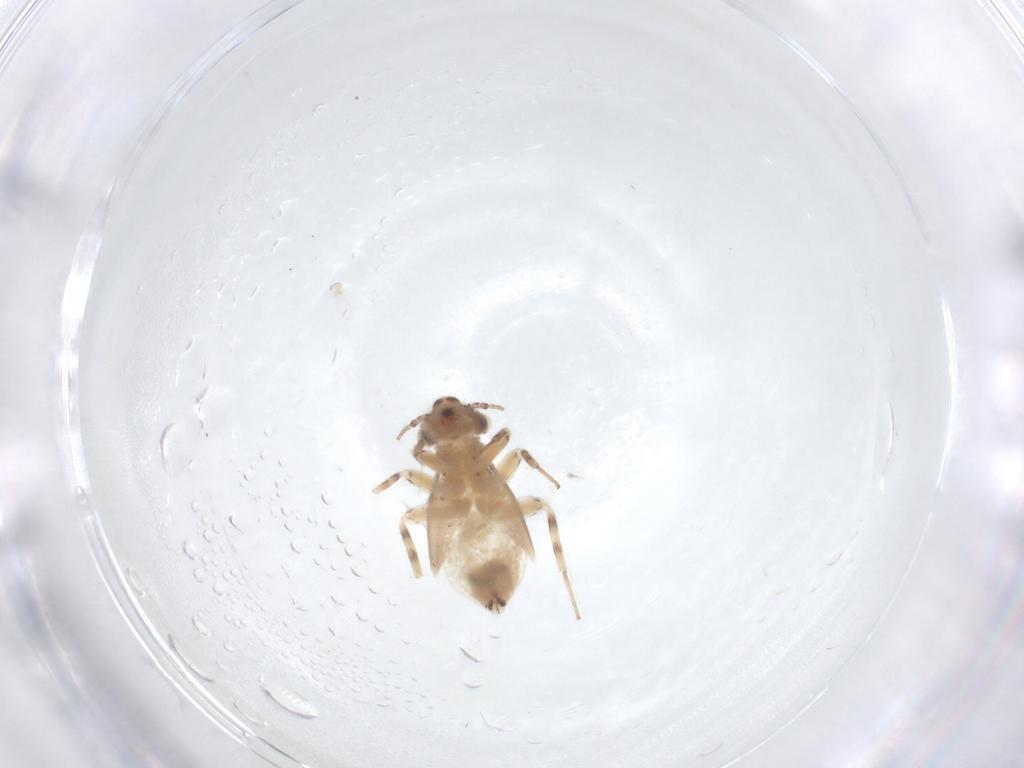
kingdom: Animalia
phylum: Arthropoda
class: Insecta
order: Psocodea
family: Lepidopsocidae
